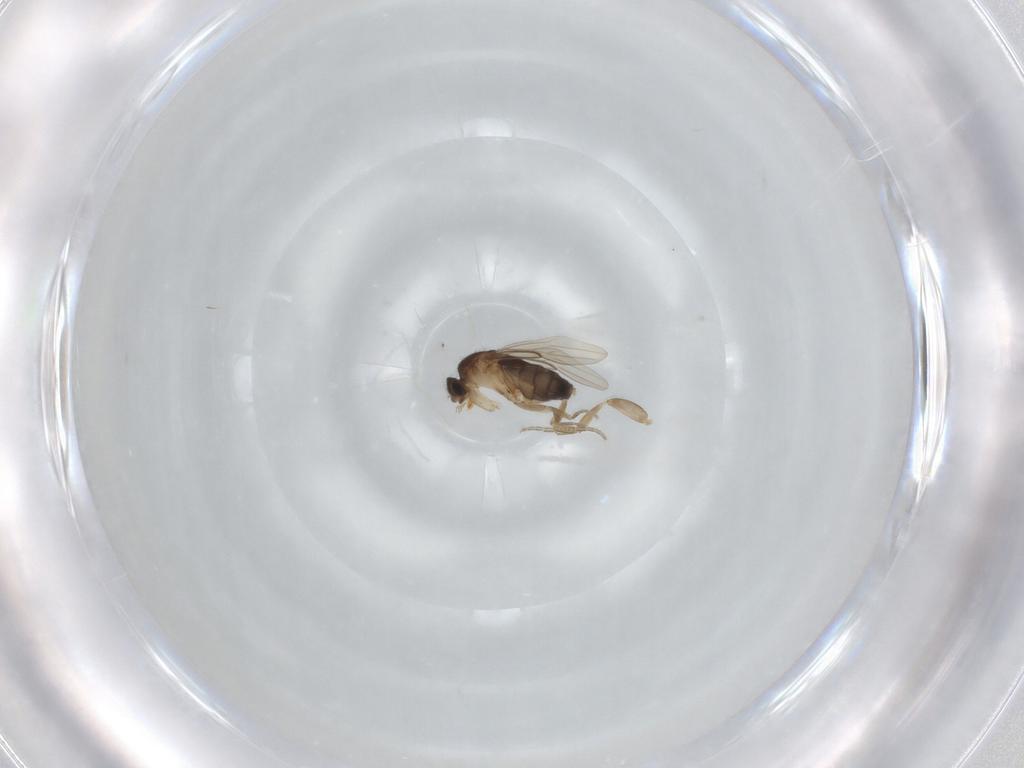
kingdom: Animalia
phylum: Arthropoda
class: Insecta
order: Diptera
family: Phoridae
